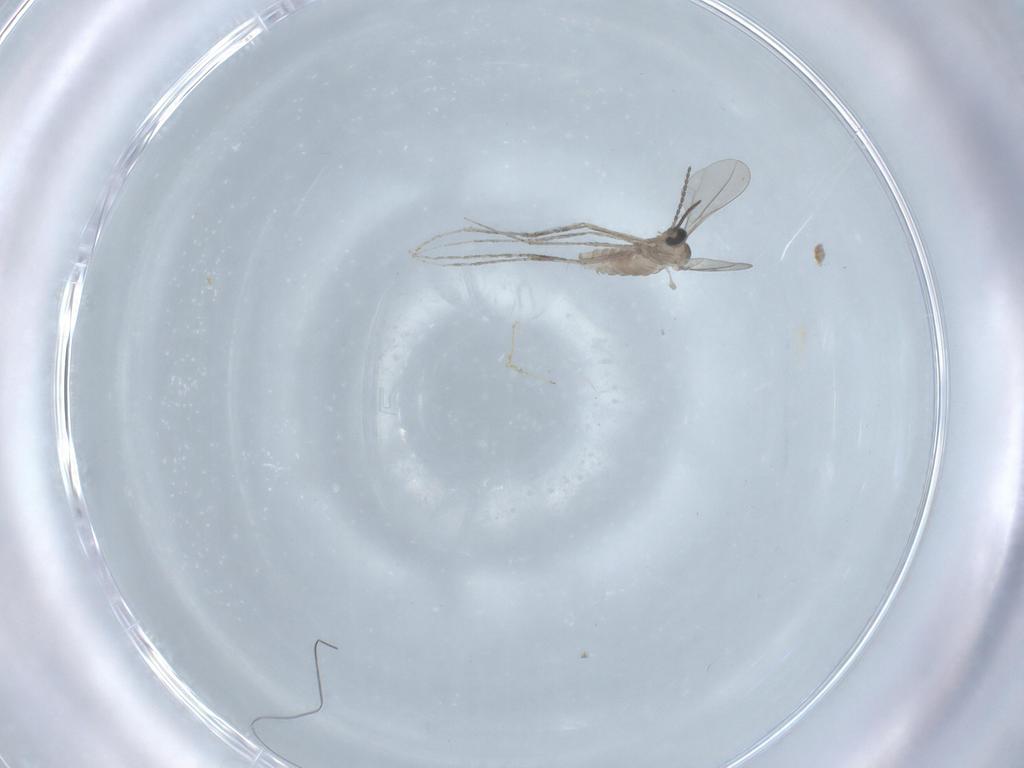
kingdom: Animalia
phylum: Arthropoda
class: Insecta
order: Diptera
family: Cecidomyiidae
